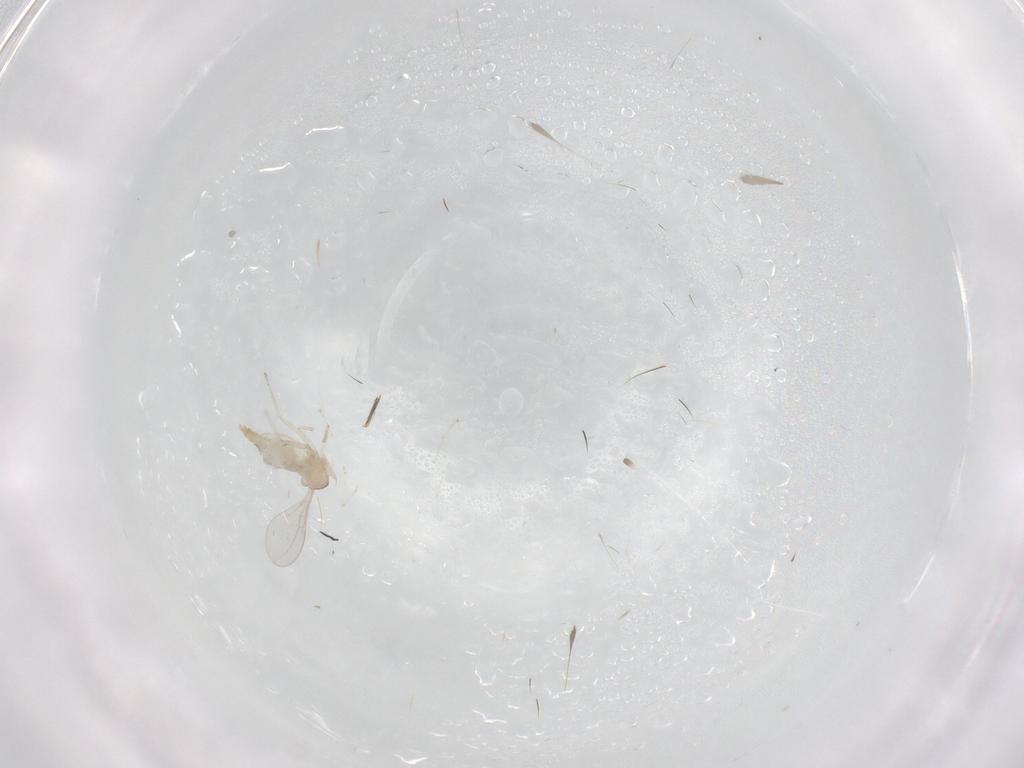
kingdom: Animalia
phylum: Arthropoda
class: Insecta
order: Diptera
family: Cecidomyiidae
